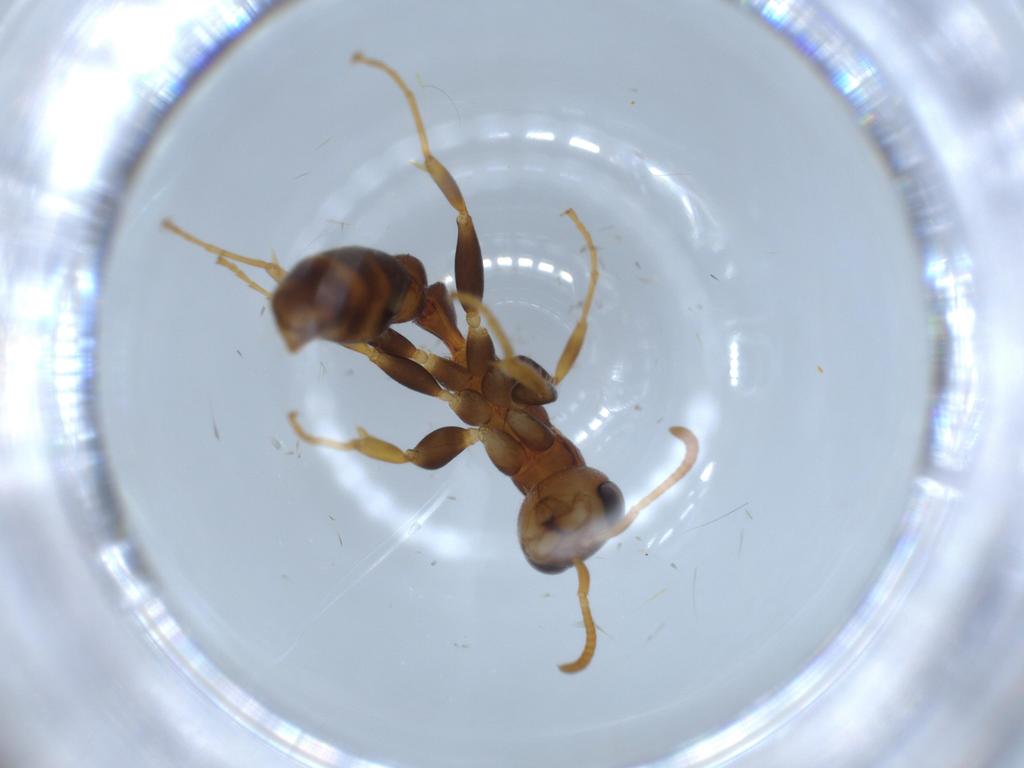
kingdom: Animalia
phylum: Arthropoda
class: Insecta
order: Hymenoptera
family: Formicidae
